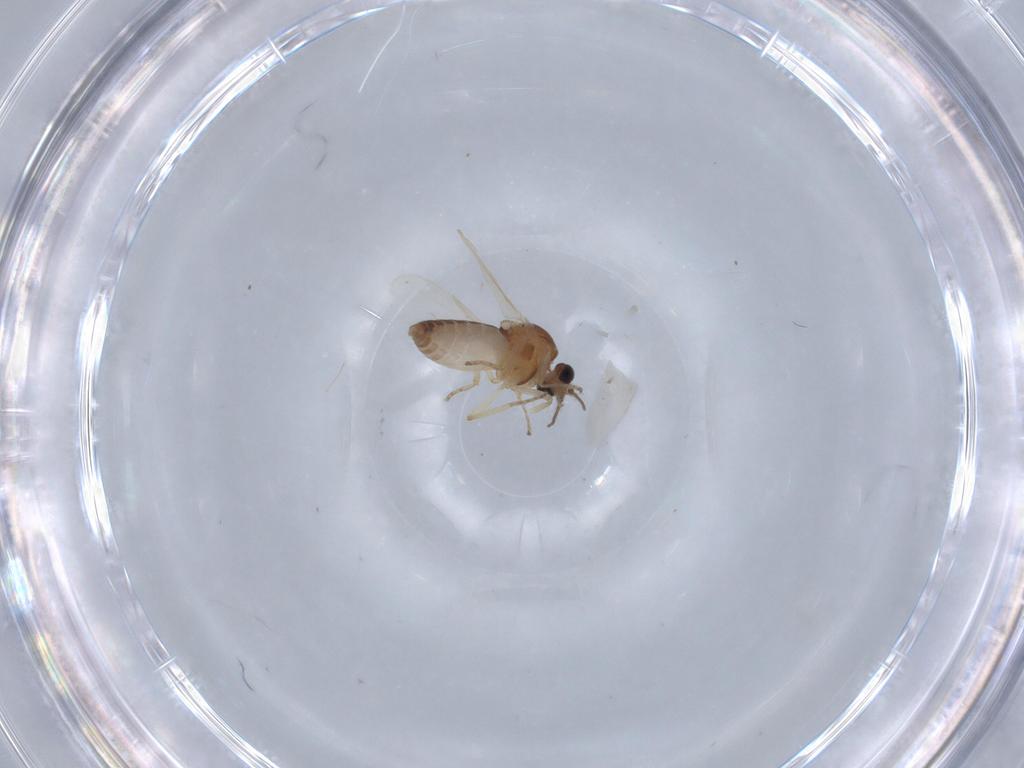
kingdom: Animalia
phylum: Arthropoda
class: Insecta
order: Diptera
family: Ceratopogonidae
